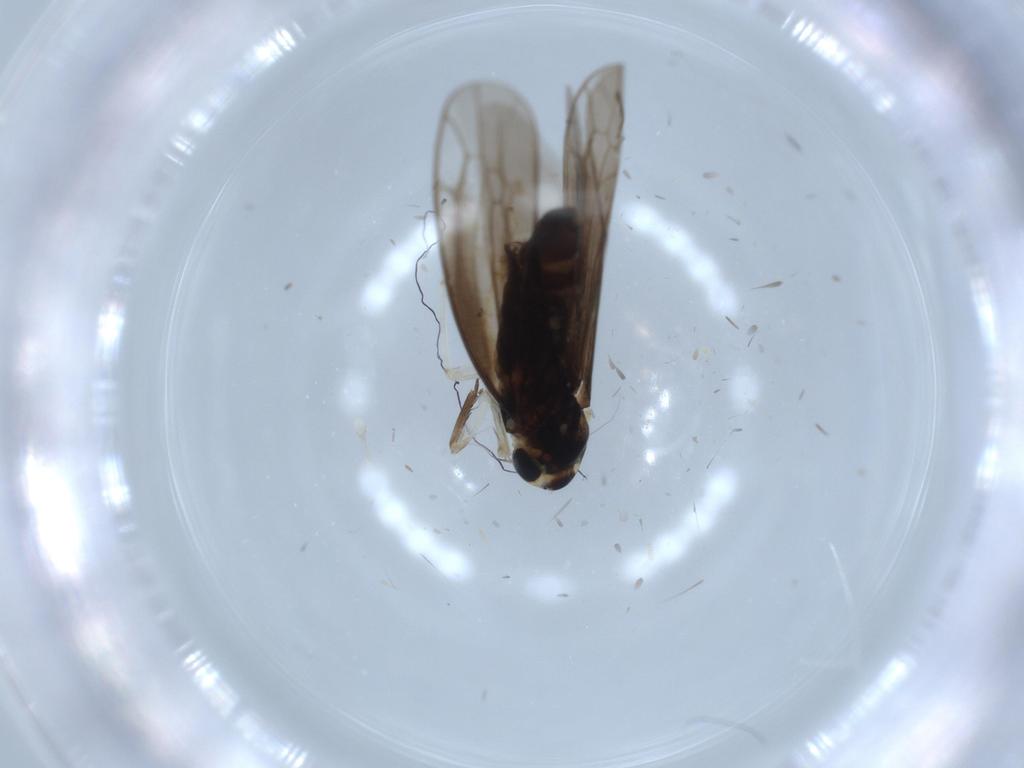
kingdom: Animalia
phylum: Arthropoda
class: Insecta
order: Hemiptera
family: Cicadellidae
